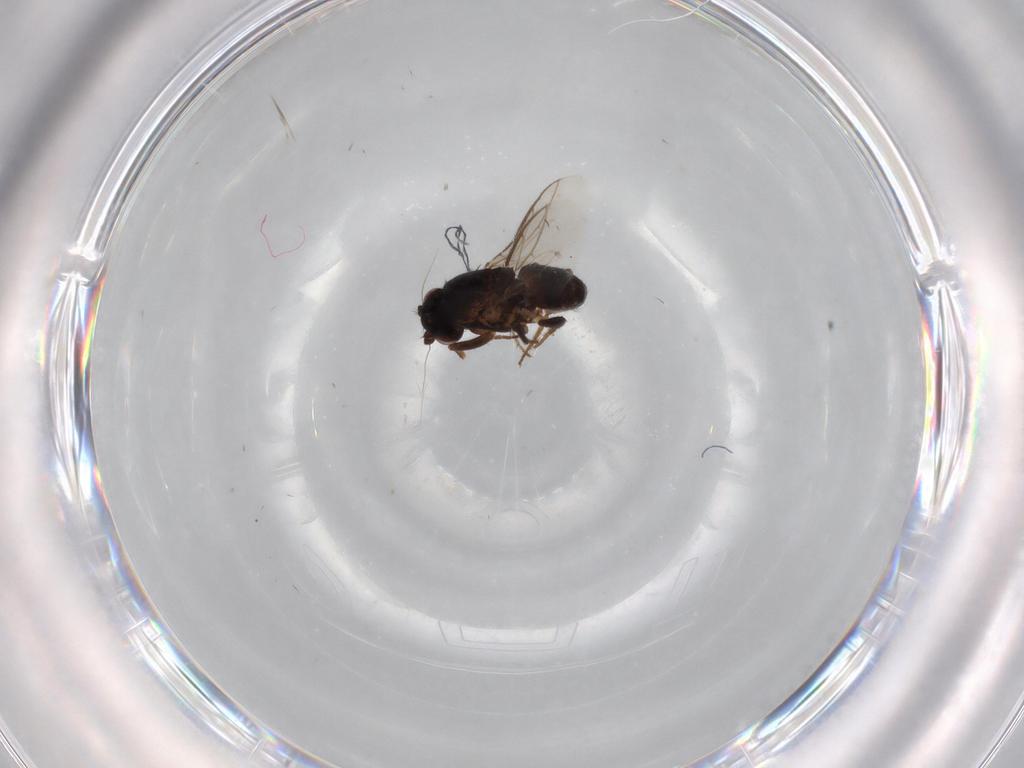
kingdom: Animalia
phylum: Arthropoda
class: Insecta
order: Diptera
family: Sphaeroceridae
